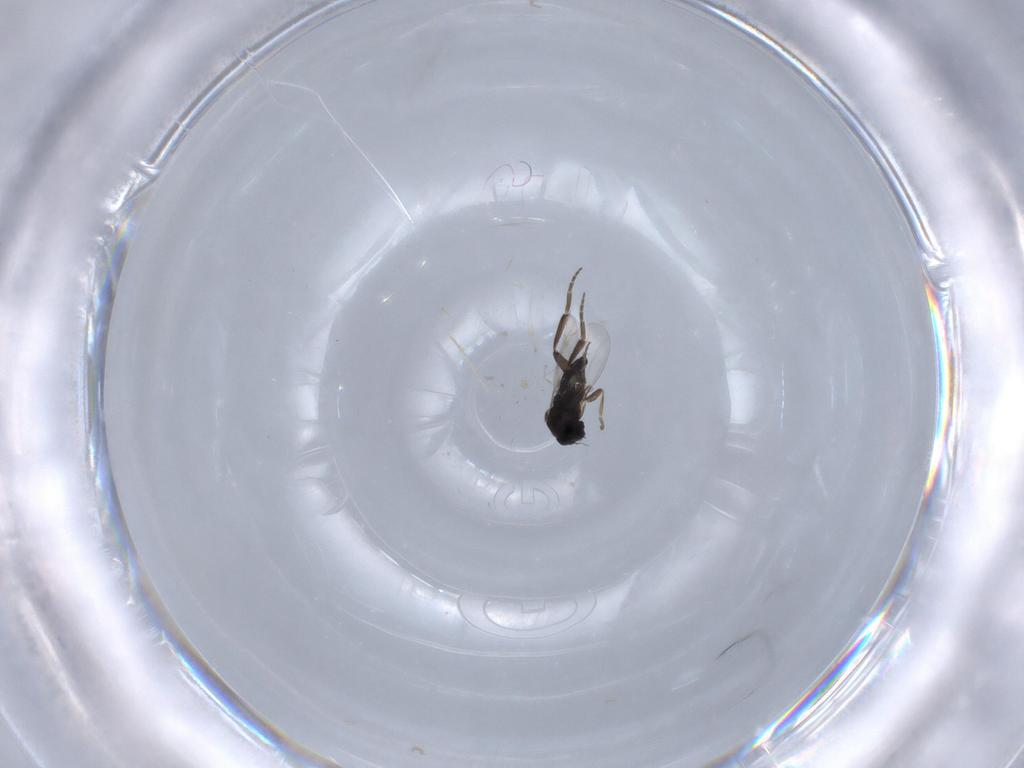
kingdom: Animalia
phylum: Arthropoda
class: Insecta
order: Diptera
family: Phoridae
